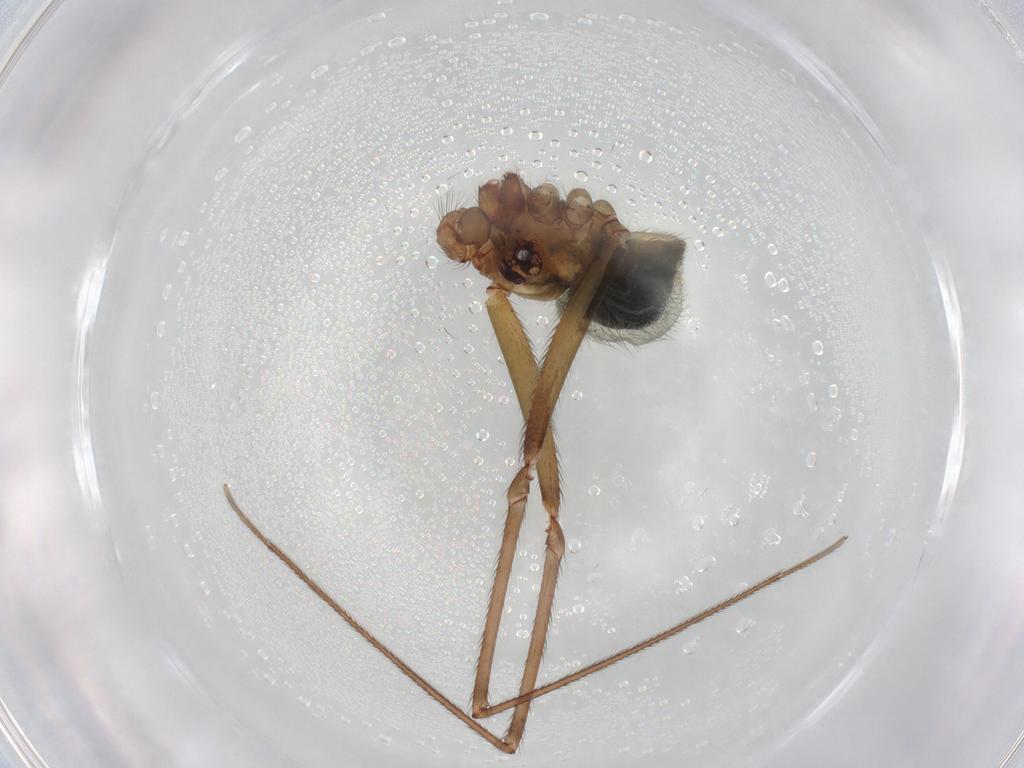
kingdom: Animalia
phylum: Arthropoda
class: Arachnida
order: Araneae
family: Pholcidae
